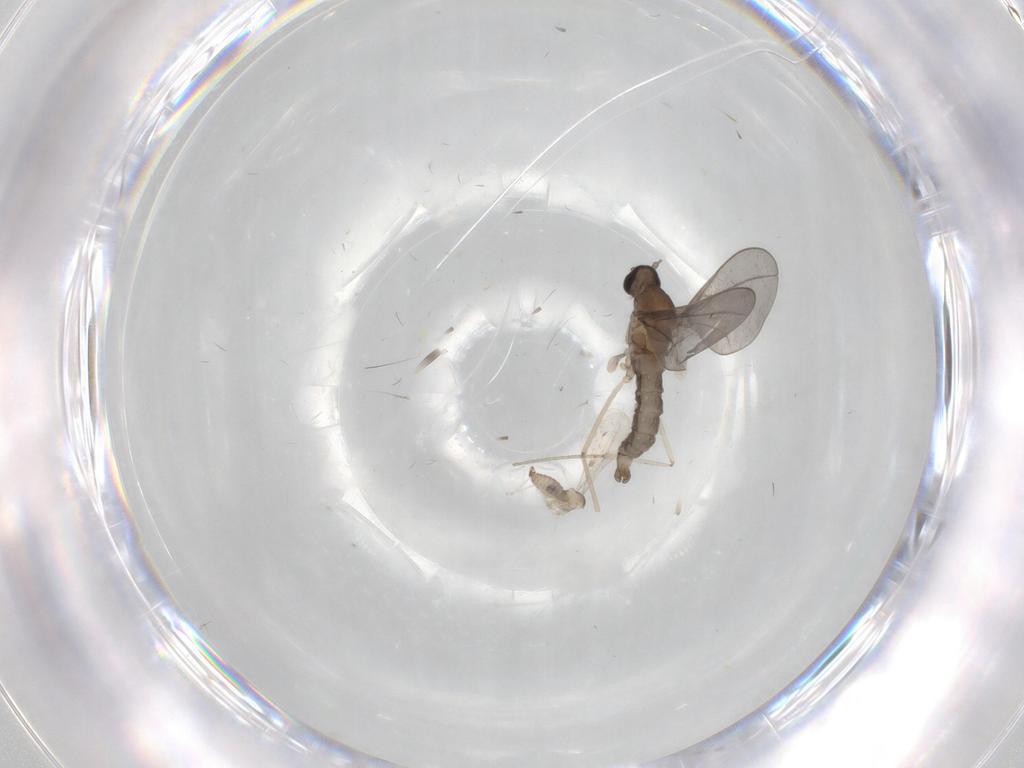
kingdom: Animalia
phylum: Arthropoda
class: Insecta
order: Diptera
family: Cecidomyiidae
